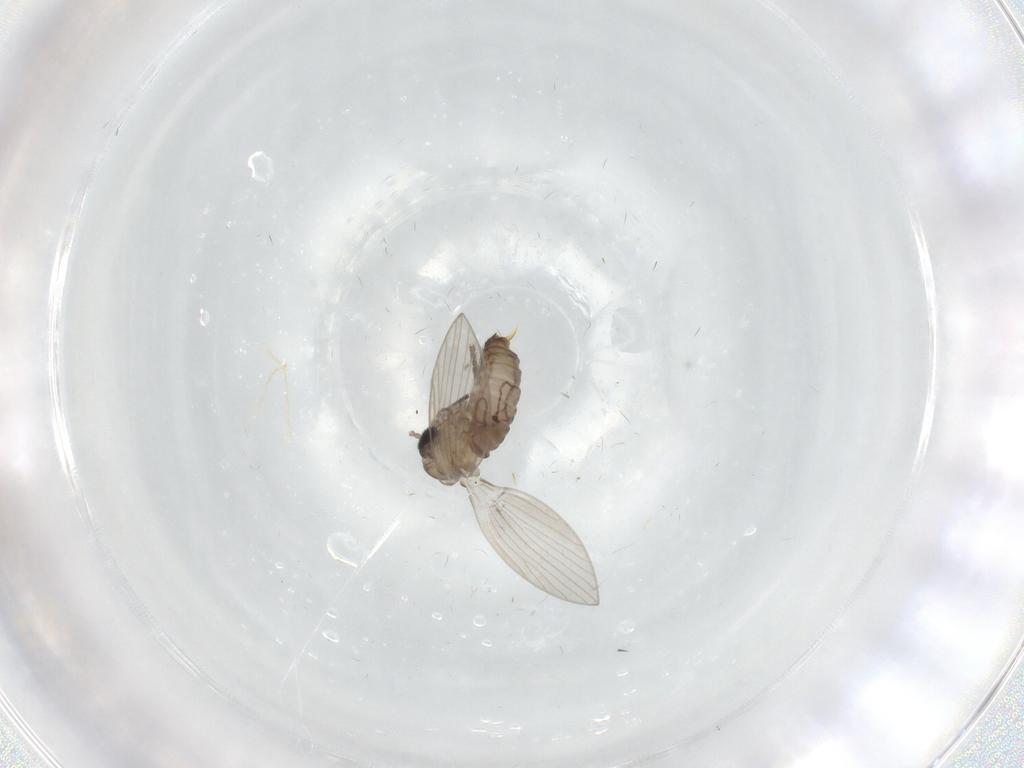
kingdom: Animalia
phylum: Arthropoda
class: Insecta
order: Diptera
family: Psychodidae
